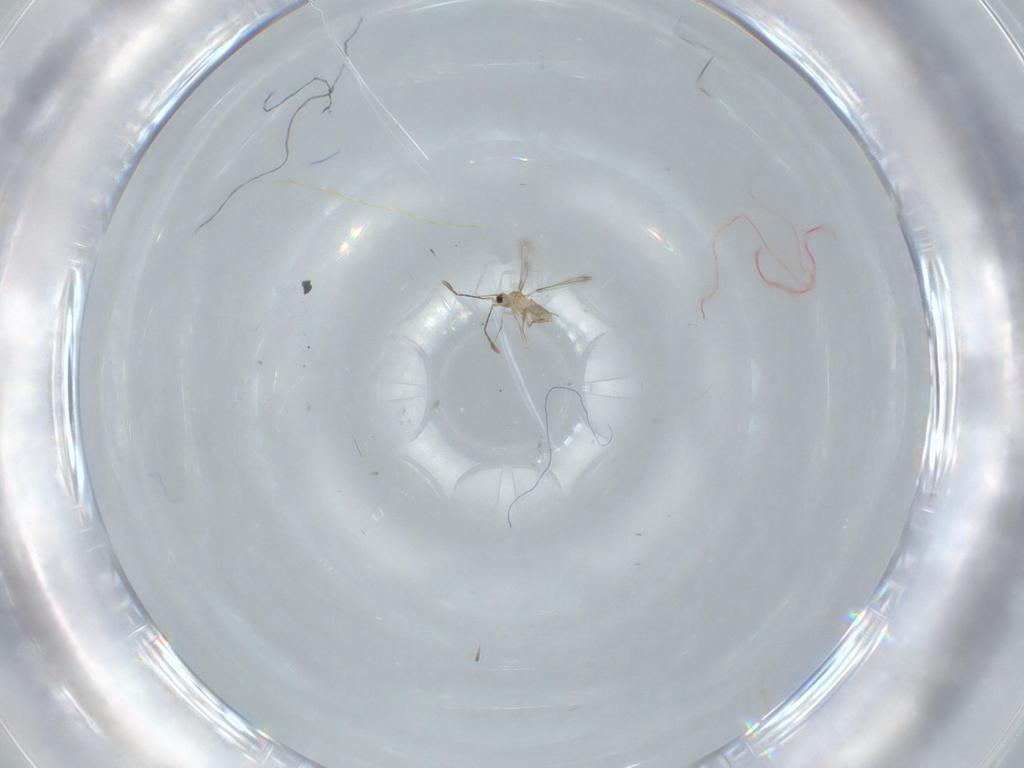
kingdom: Animalia
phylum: Arthropoda
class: Insecta
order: Hymenoptera
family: Mymaridae
